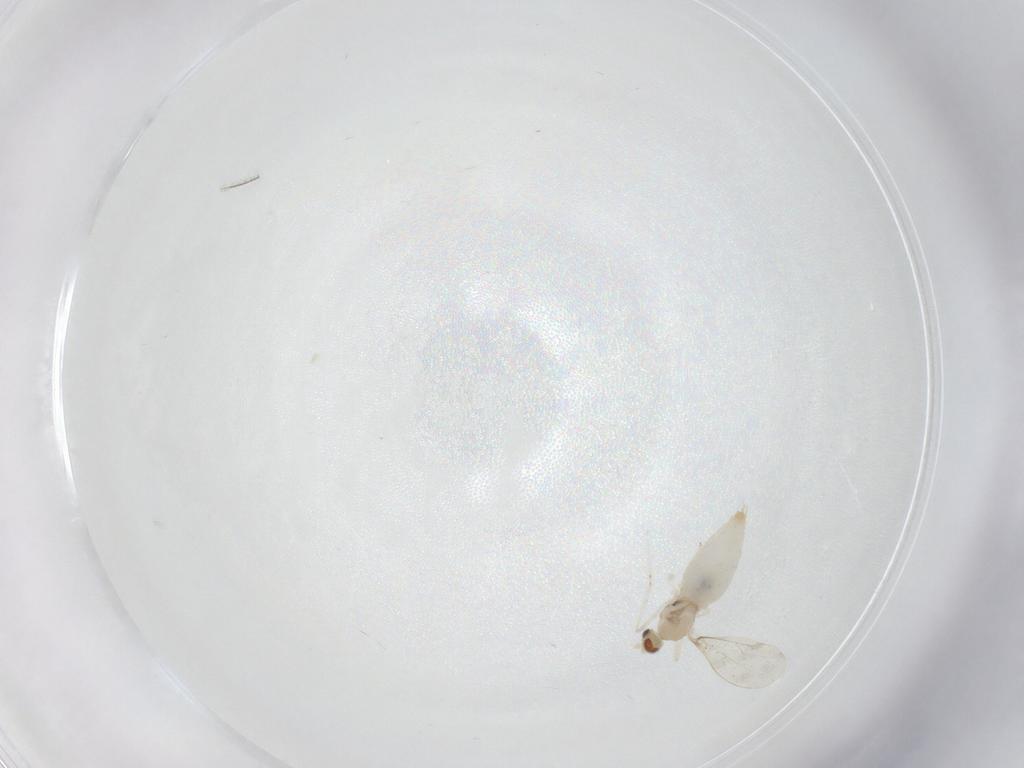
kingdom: Animalia
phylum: Arthropoda
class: Insecta
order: Diptera
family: Cecidomyiidae
